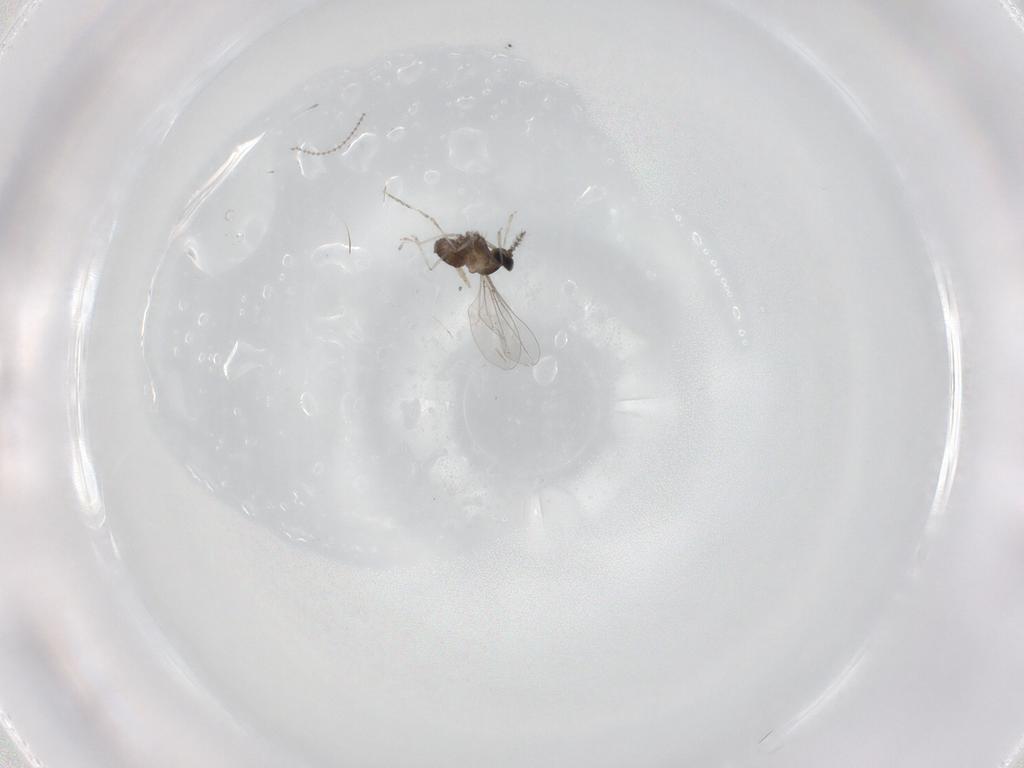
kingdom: Animalia
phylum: Arthropoda
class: Insecta
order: Diptera
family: Cecidomyiidae
